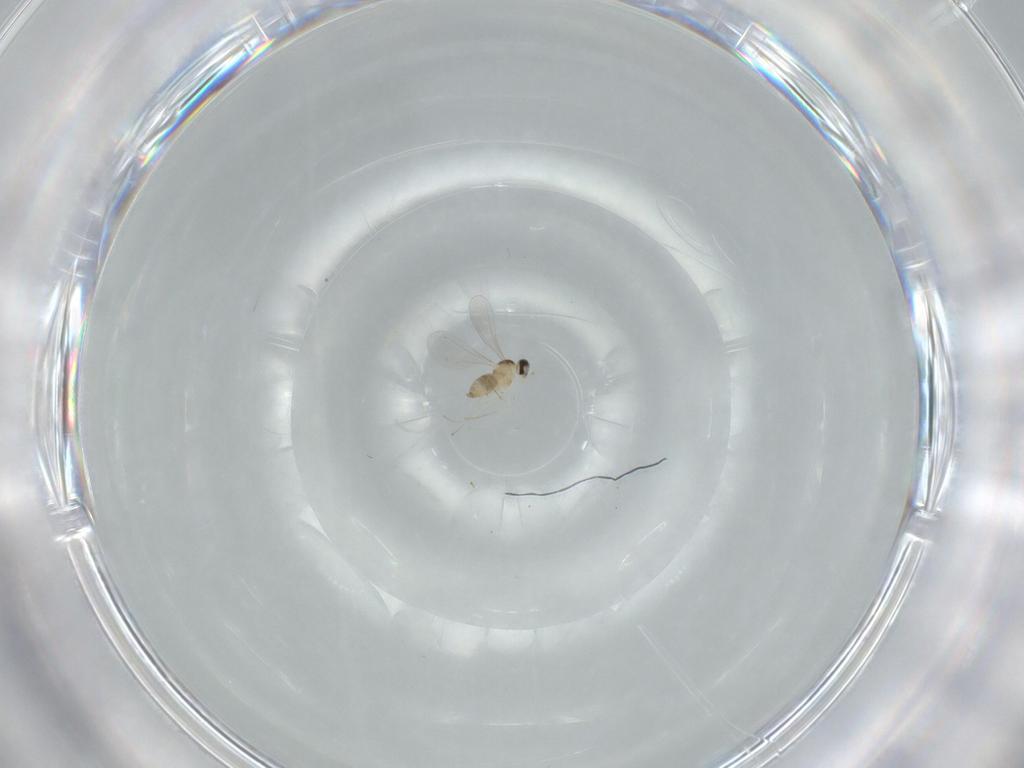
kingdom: Animalia
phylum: Arthropoda
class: Insecta
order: Diptera
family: Cecidomyiidae
